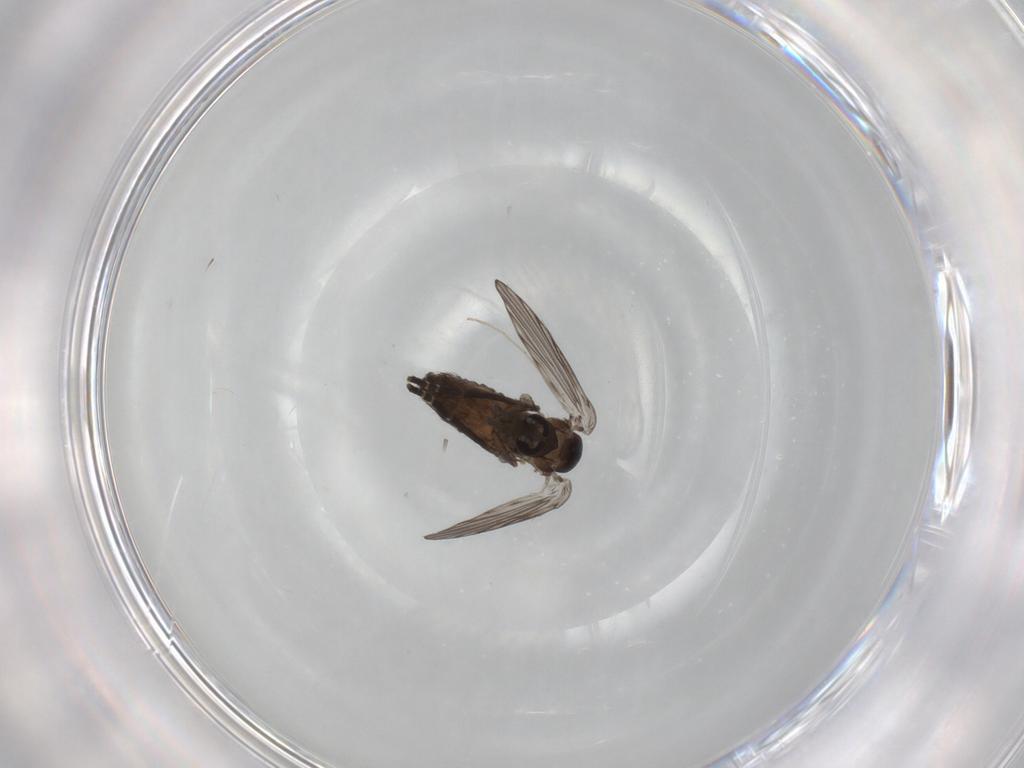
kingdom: Animalia
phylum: Arthropoda
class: Insecta
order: Diptera
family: Psychodidae
